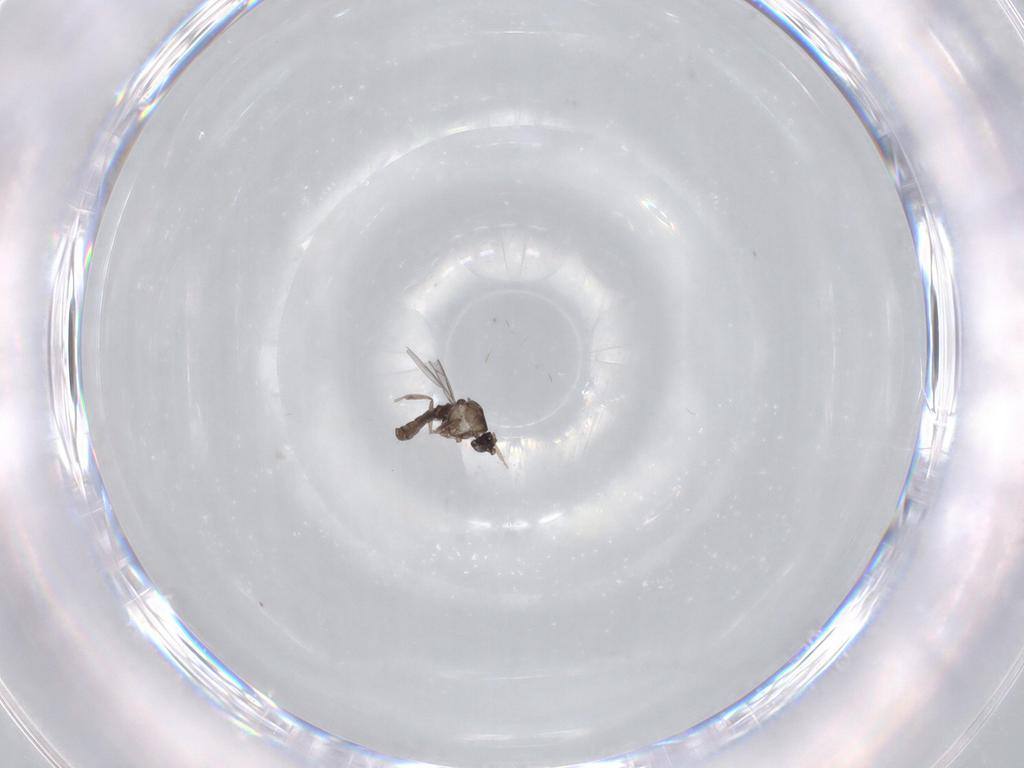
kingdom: Animalia
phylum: Arthropoda
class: Insecta
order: Diptera
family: Cecidomyiidae
